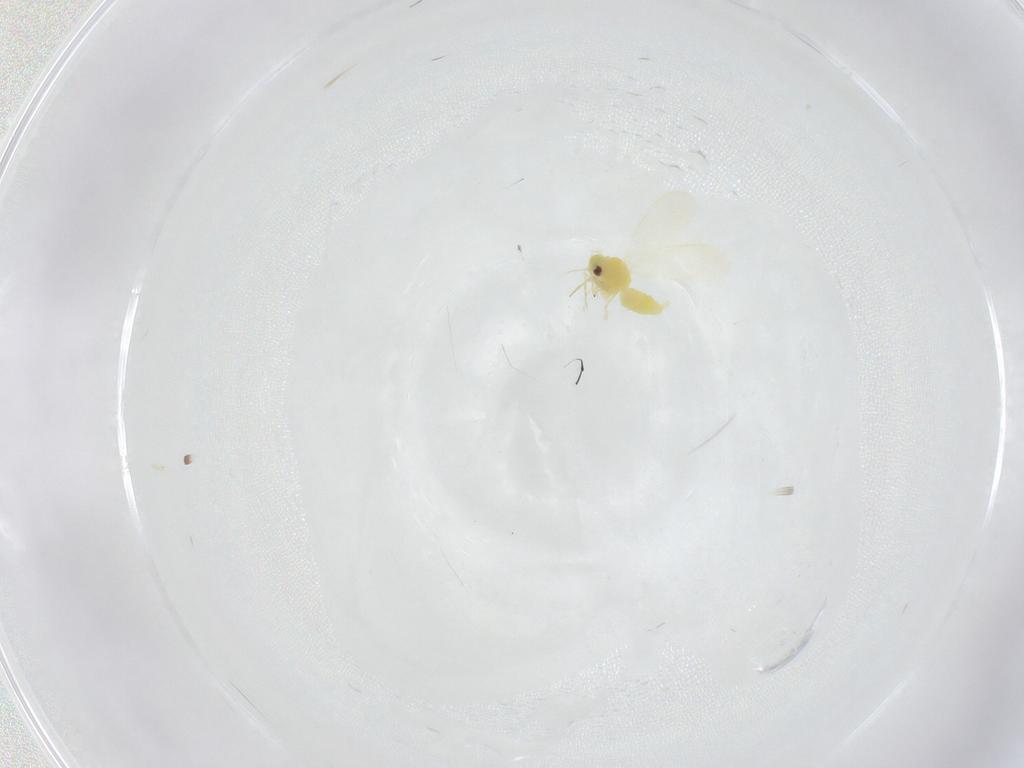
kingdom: Animalia
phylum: Arthropoda
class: Insecta
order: Hemiptera
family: Aleyrodidae
